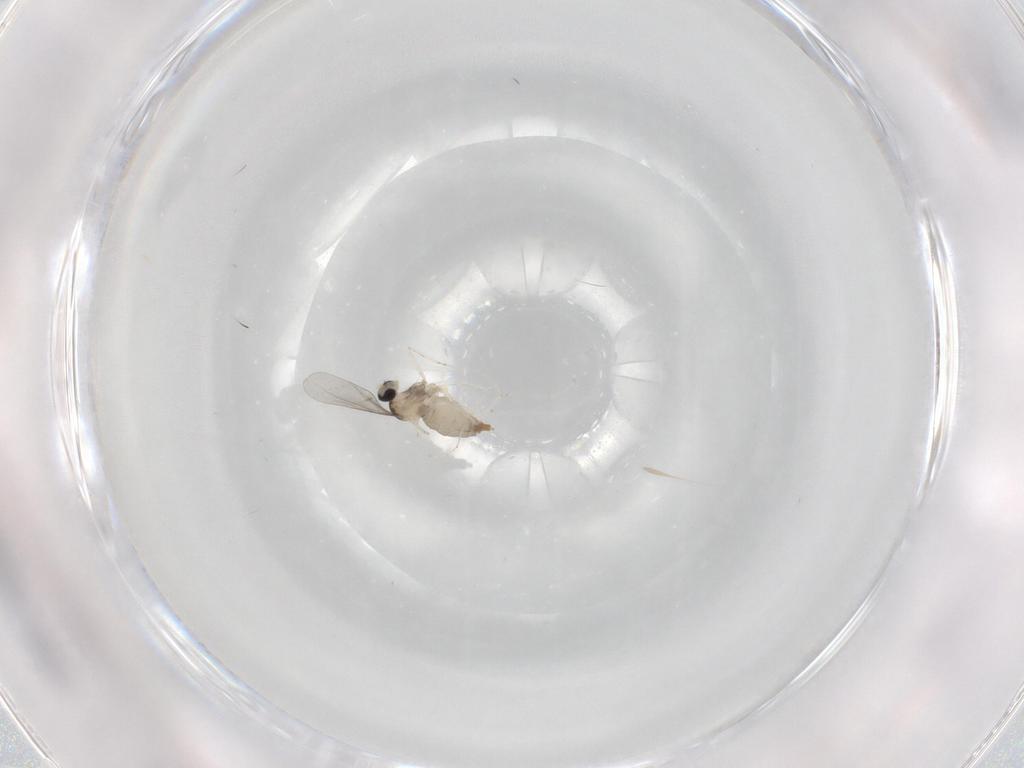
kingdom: Animalia
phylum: Arthropoda
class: Insecta
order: Diptera
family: Cecidomyiidae
